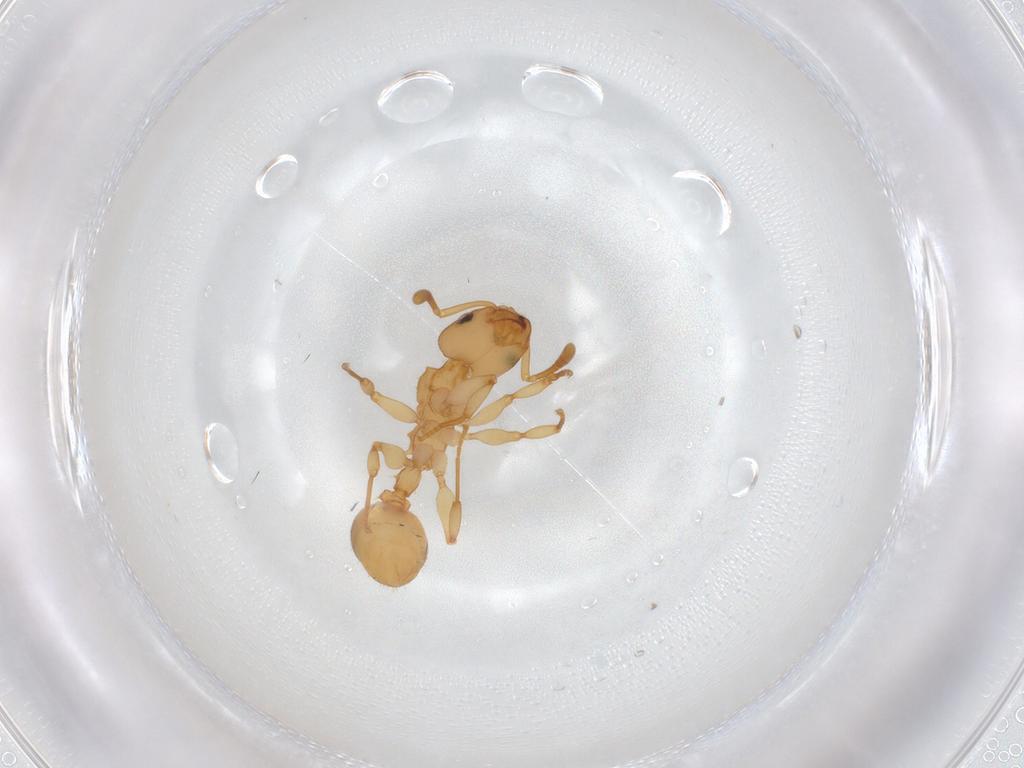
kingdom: Animalia
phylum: Arthropoda
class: Insecta
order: Hymenoptera
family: Formicidae
